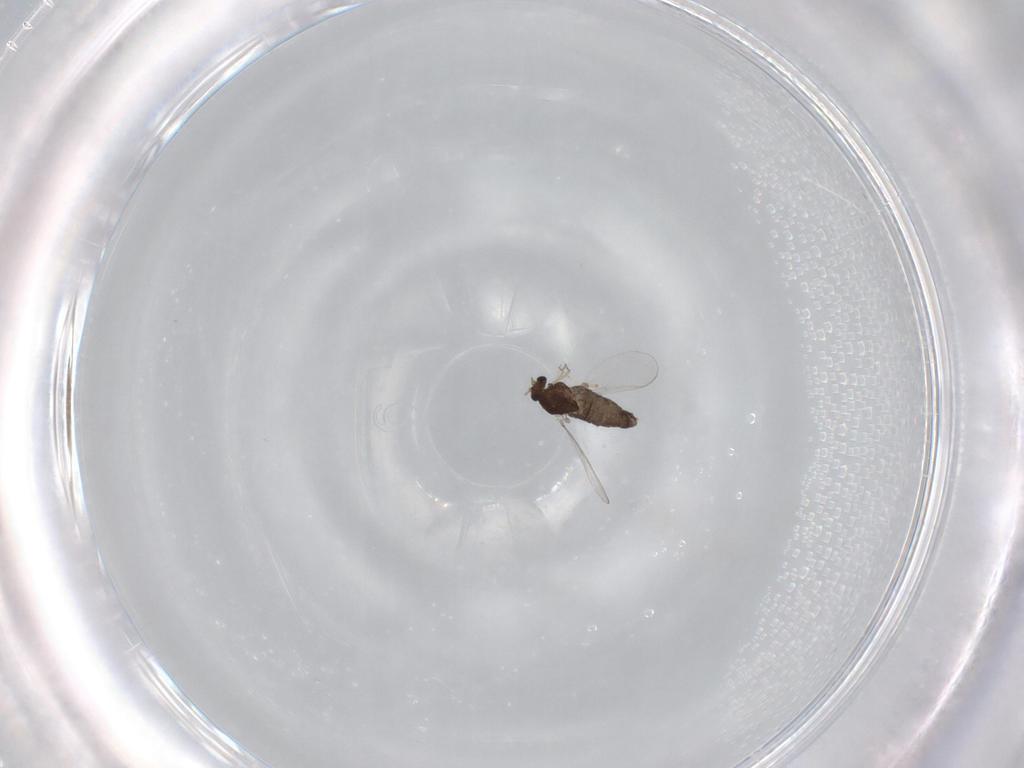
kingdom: Animalia
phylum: Arthropoda
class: Insecta
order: Diptera
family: Chironomidae
